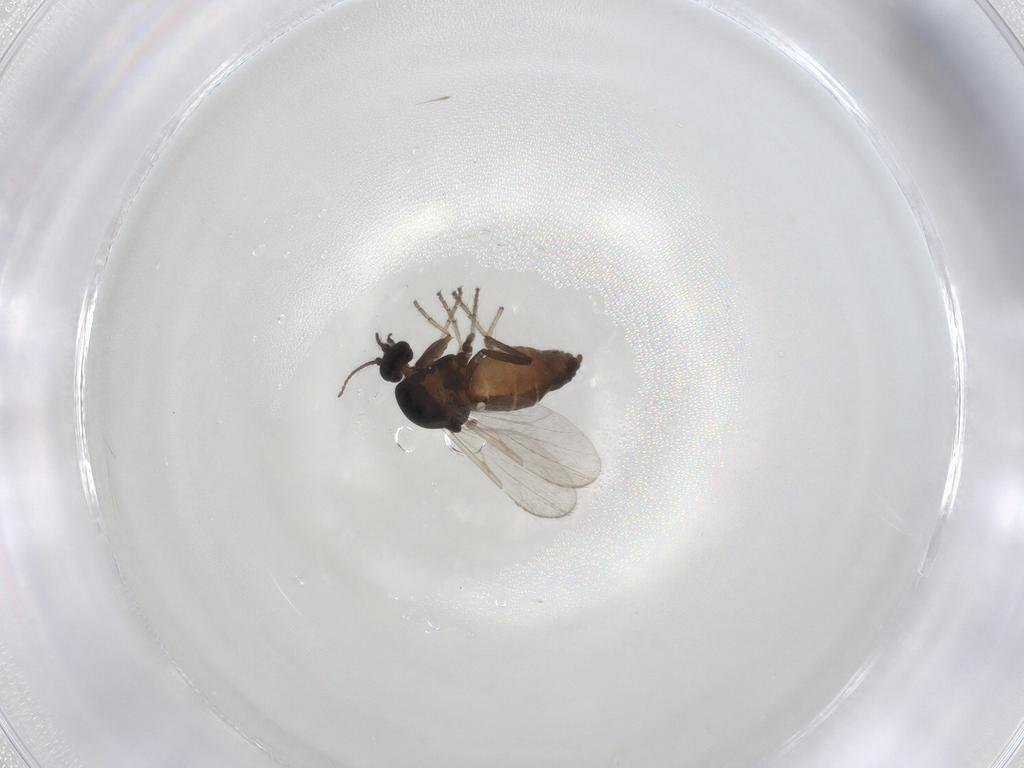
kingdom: Animalia
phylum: Arthropoda
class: Insecta
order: Diptera
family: Ceratopogonidae
